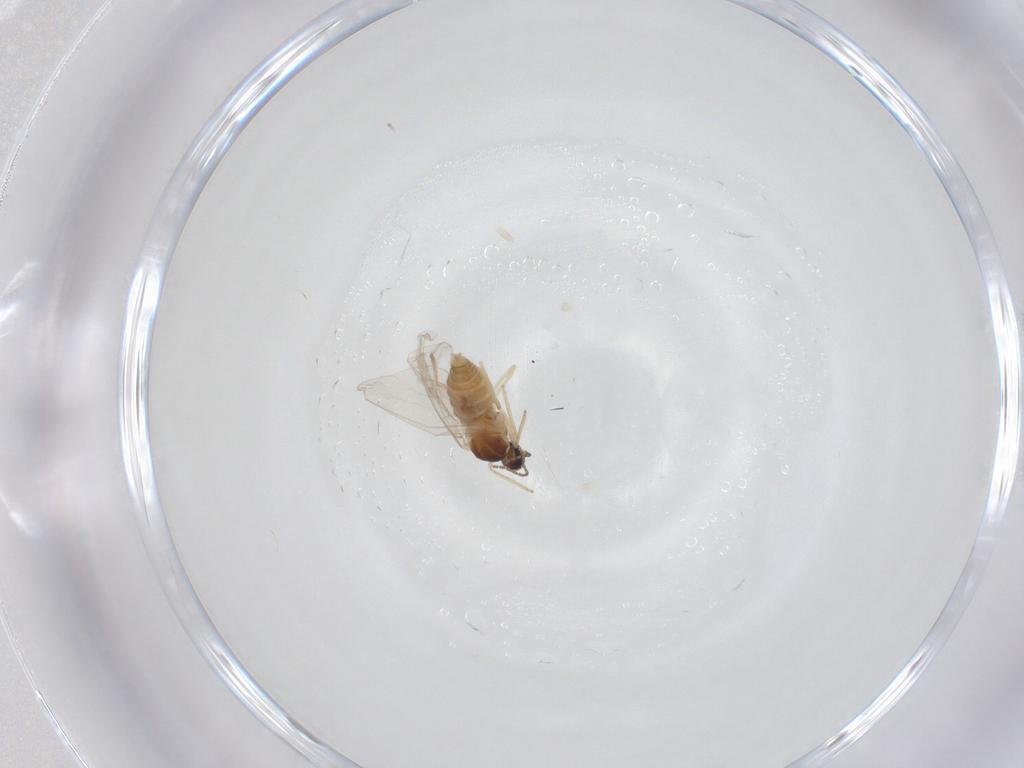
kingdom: Animalia
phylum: Arthropoda
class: Insecta
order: Diptera
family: Cecidomyiidae
